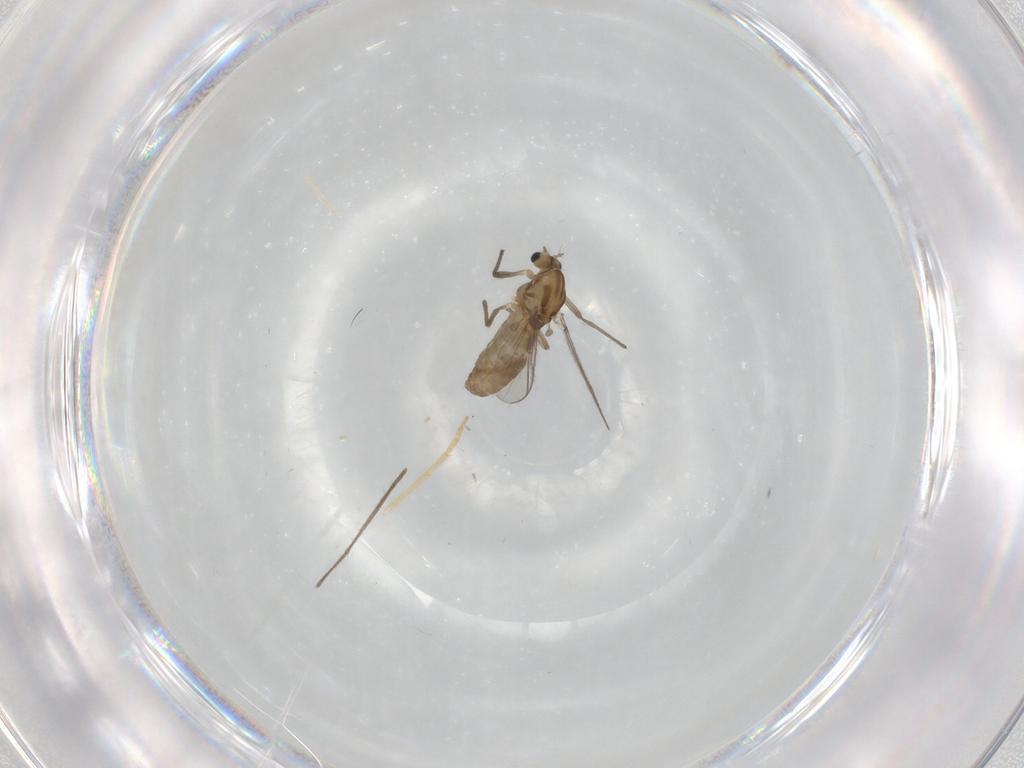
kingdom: Animalia
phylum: Arthropoda
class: Insecta
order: Diptera
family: Chironomidae
